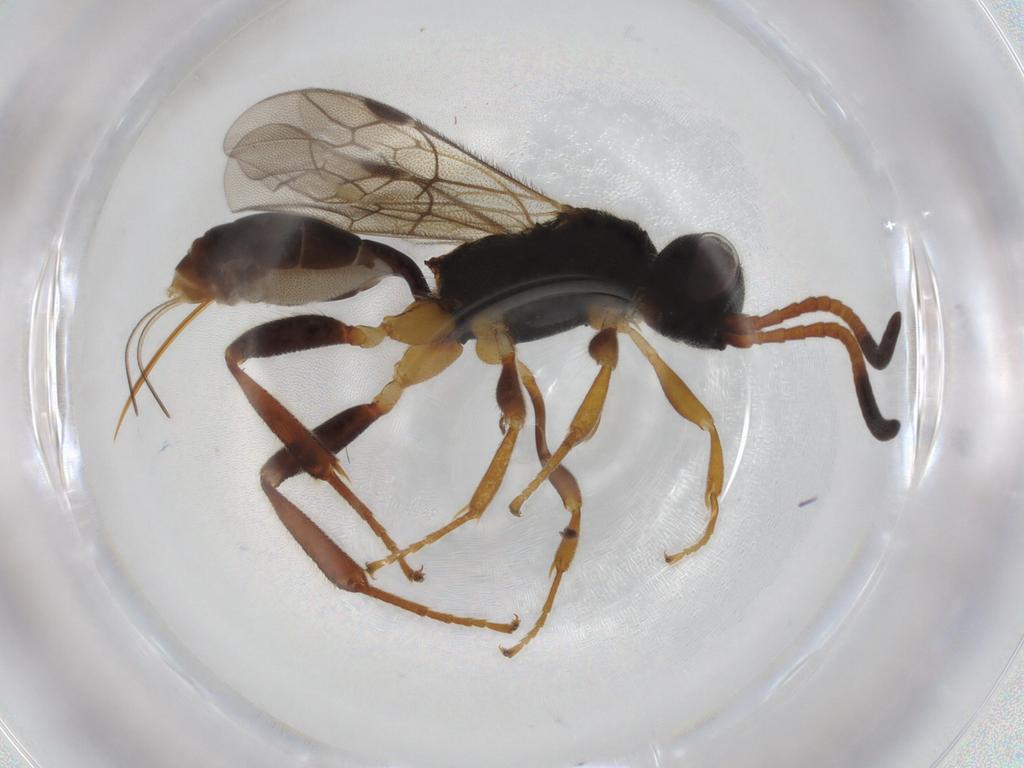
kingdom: Animalia
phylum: Arthropoda
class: Insecta
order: Hymenoptera
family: Ichneumonidae
